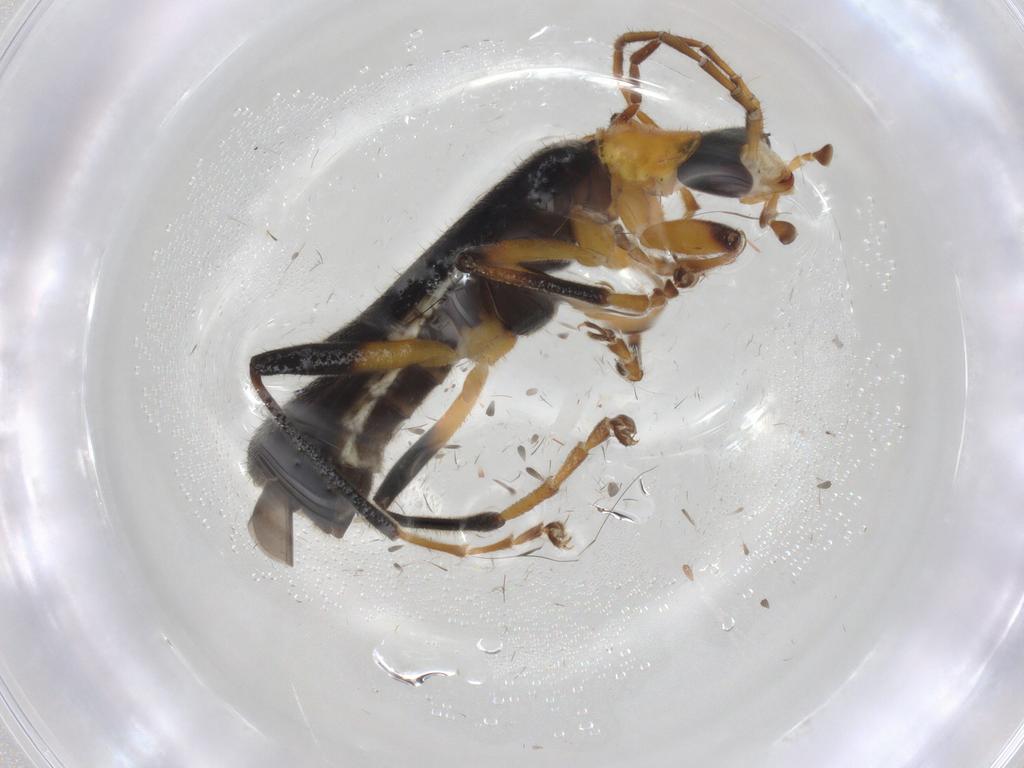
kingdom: Animalia
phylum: Arthropoda
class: Insecta
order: Coleoptera
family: Cantharidae
